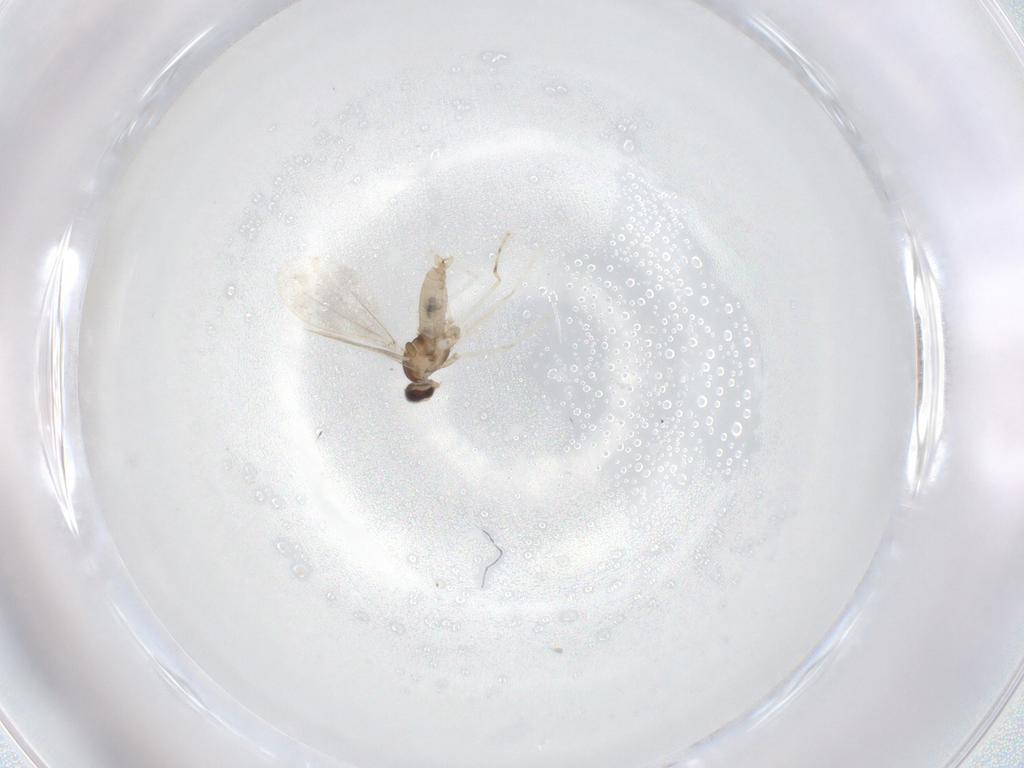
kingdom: Animalia
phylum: Arthropoda
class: Insecta
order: Diptera
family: Cecidomyiidae
